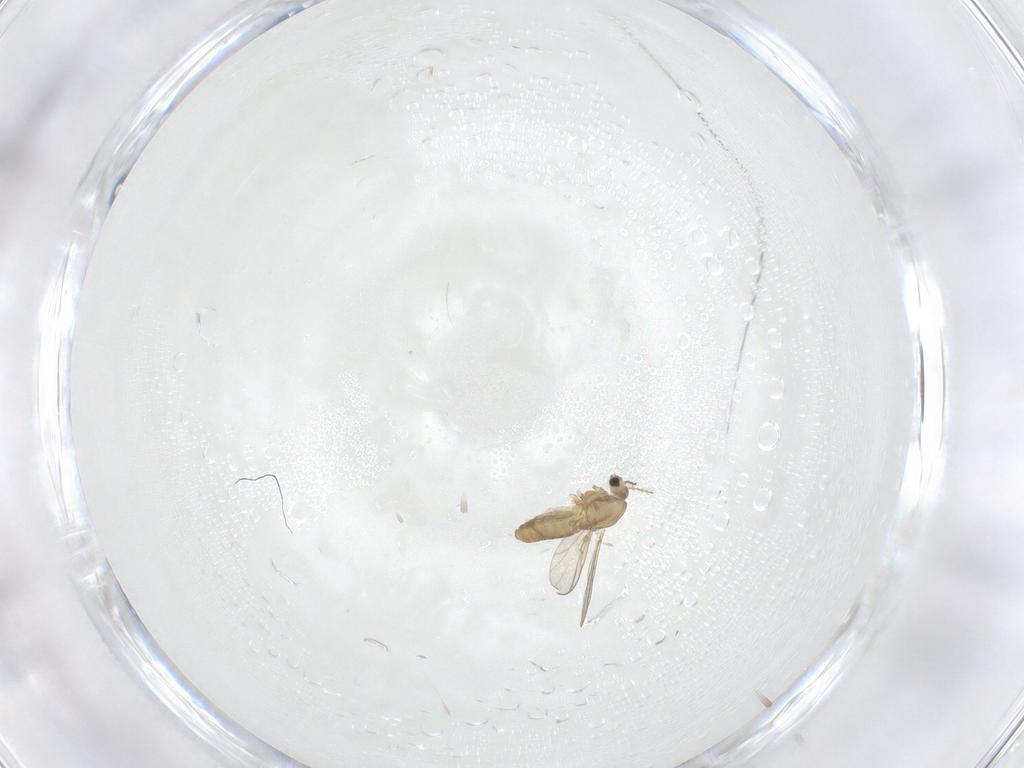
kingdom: Animalia
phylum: Arthropoda
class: Insecta
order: Diptera
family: Chironomidae
